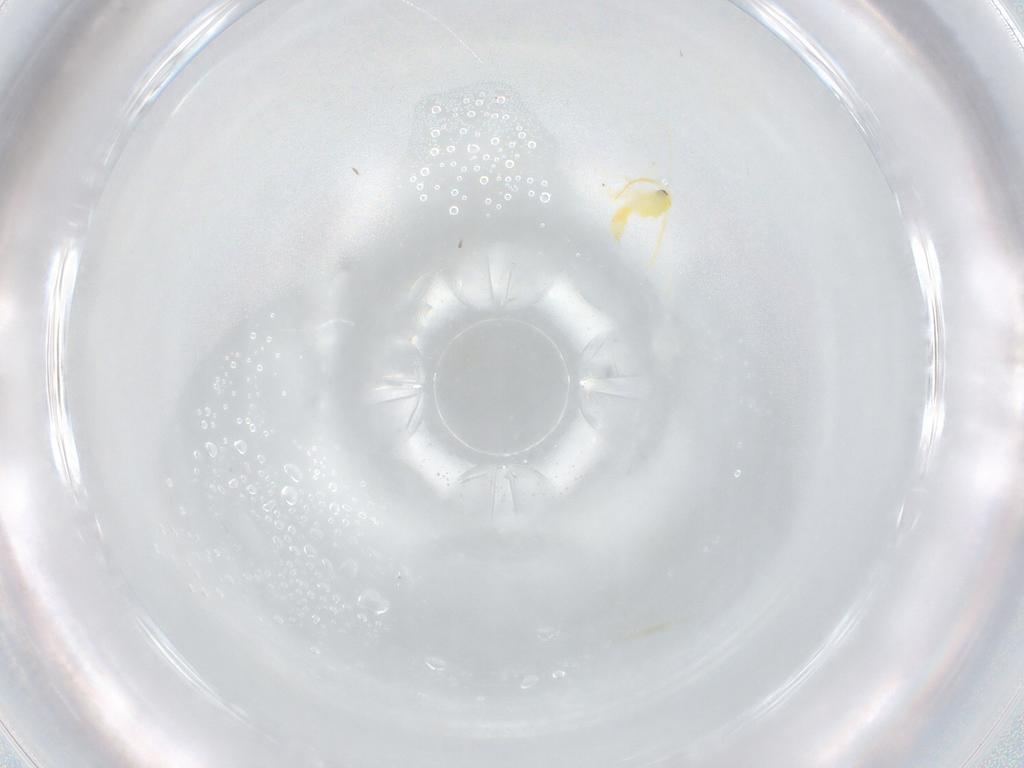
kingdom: Animalia
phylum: Arthropoda
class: Insecta
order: Hemiptera
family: Aleyrodidae
